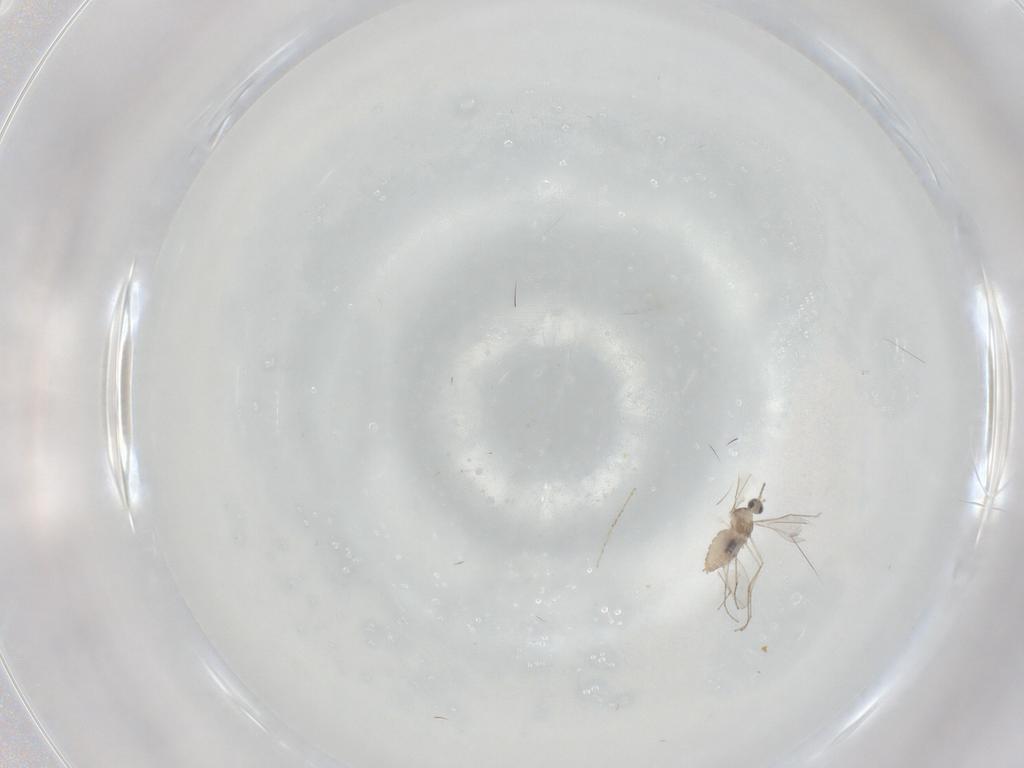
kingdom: Animalia
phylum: Arthropoda
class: Insecta
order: Diptera
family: Cecidomyiidae
